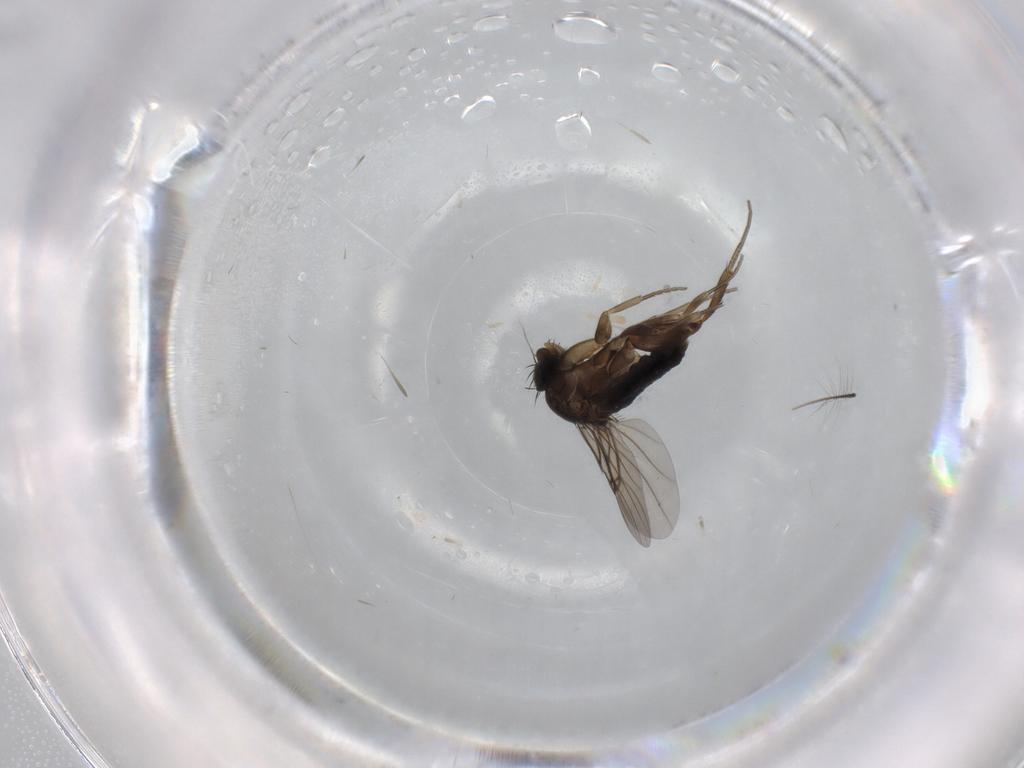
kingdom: Animalia
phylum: Arthropoda
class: Insecta
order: Diptera
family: Phoridae
